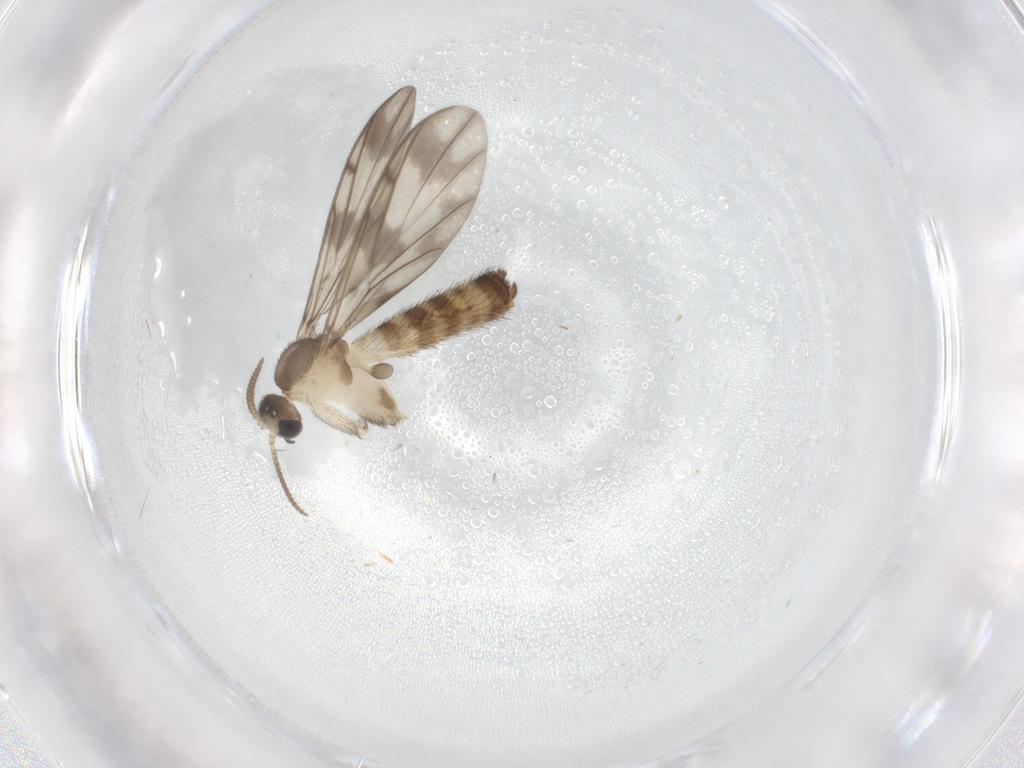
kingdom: Animalia
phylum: Arthropoda
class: Insecta
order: Diptera
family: Keroplatidae
